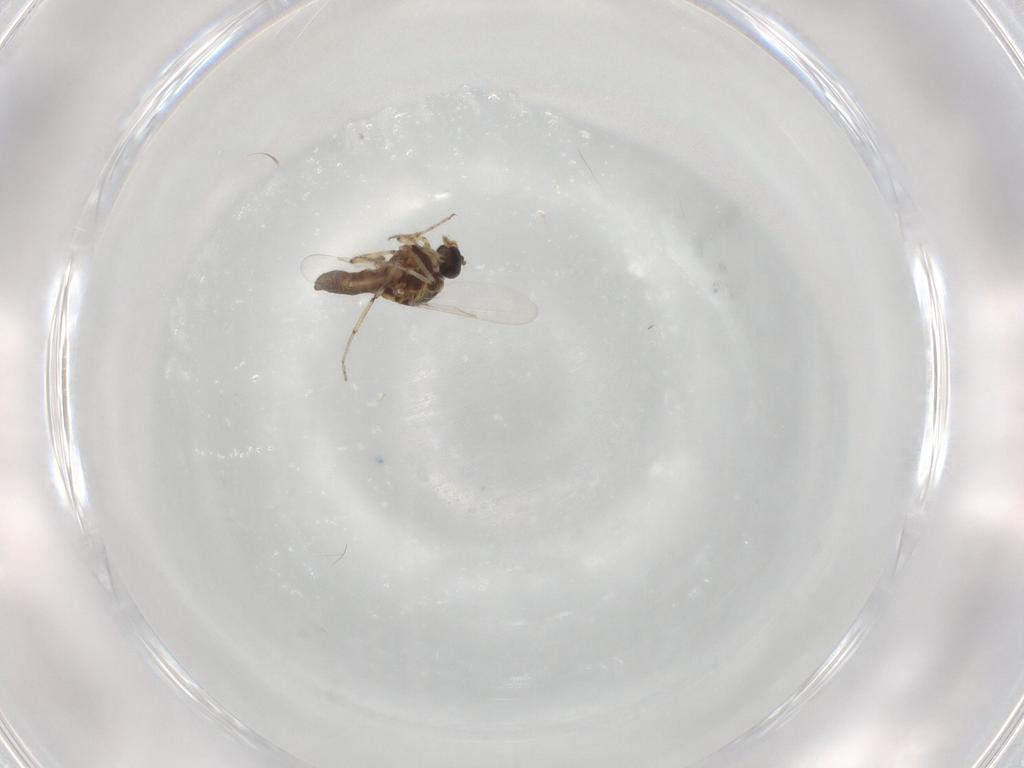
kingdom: Animalia
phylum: Arthropoda
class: Insecta
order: Diptera
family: Ceratopogonidae
